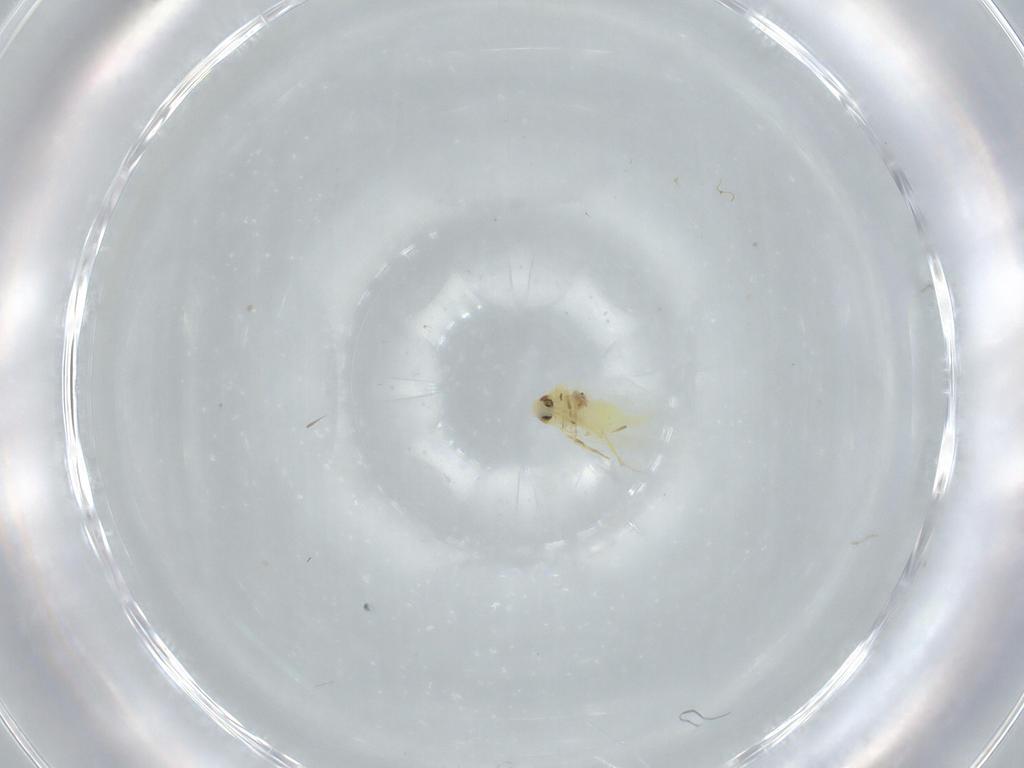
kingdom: Animalia
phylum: Arthropoda
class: Insecta
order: Hemiptera
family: Aleyrodidae
